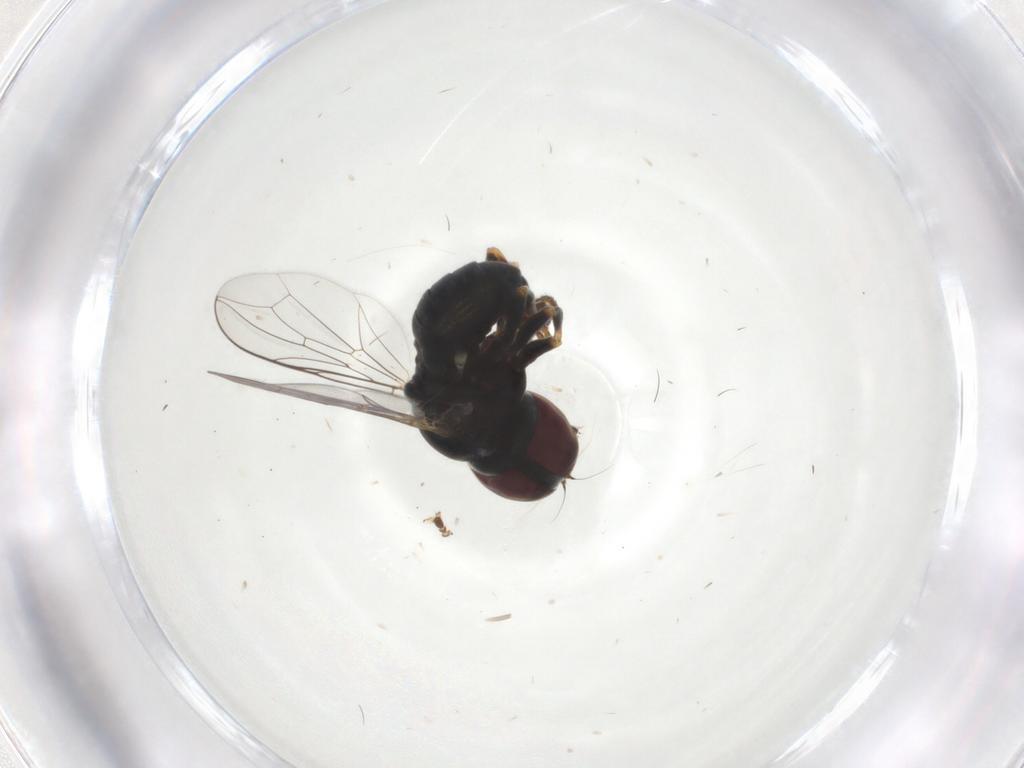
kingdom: Animalia
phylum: Arthropoda
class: Insecta
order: Diptera
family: Pipunculidae
